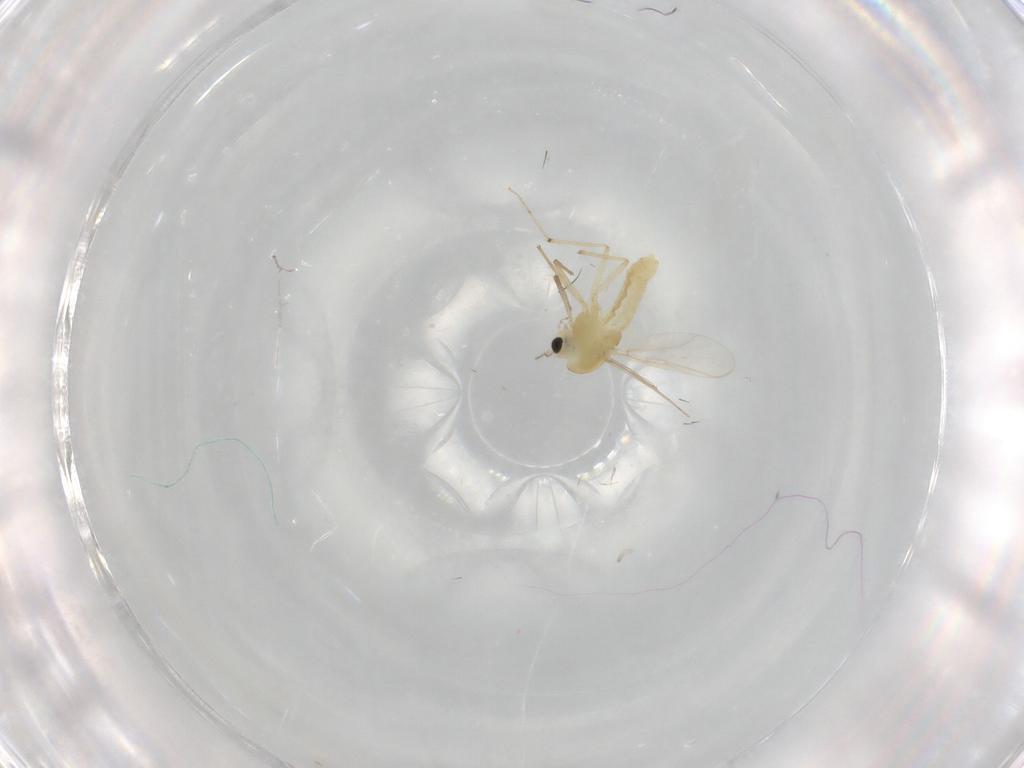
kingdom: Animalia
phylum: Arthropoda
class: Insecta
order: Diptera
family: Chironomidae
